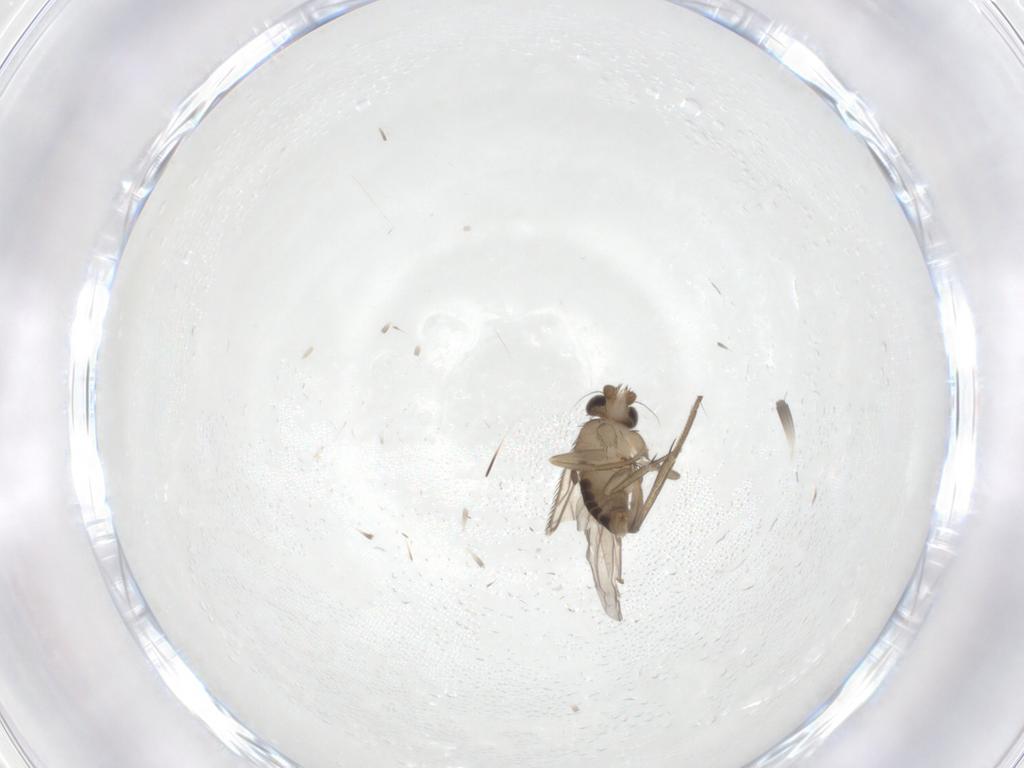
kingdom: Animalia
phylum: Arthropoda
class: Insecta
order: Diptera
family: Phoridae
